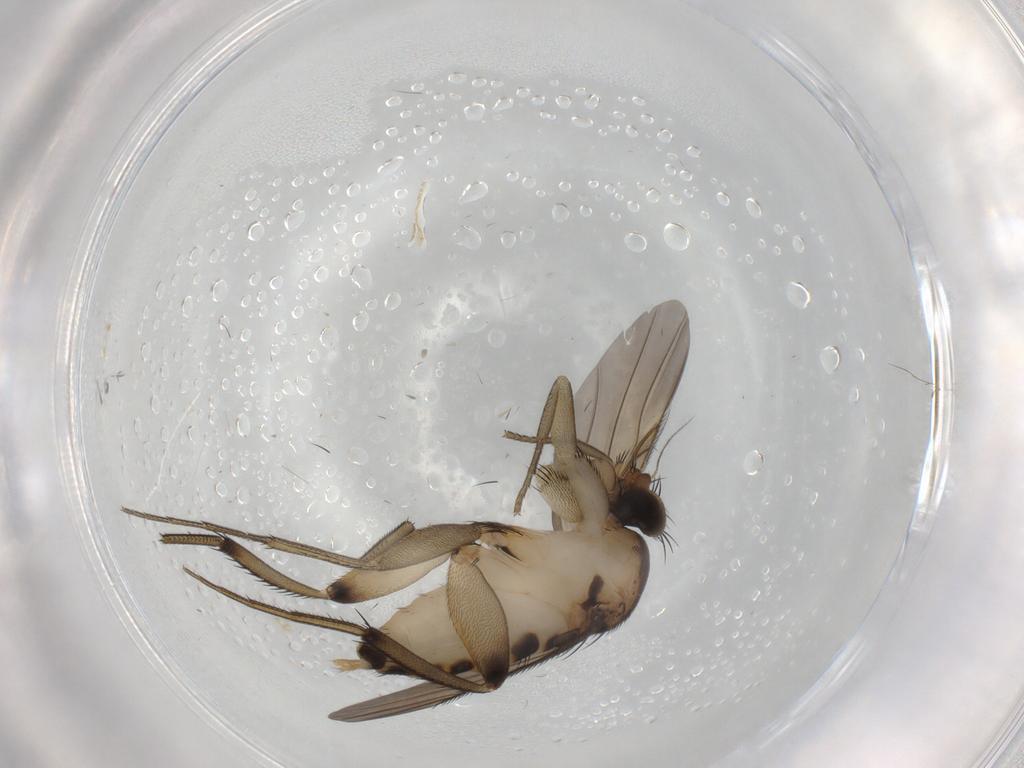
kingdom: Animalia
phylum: Arthropoda
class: Insecta
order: Diptera
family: Phoridae
